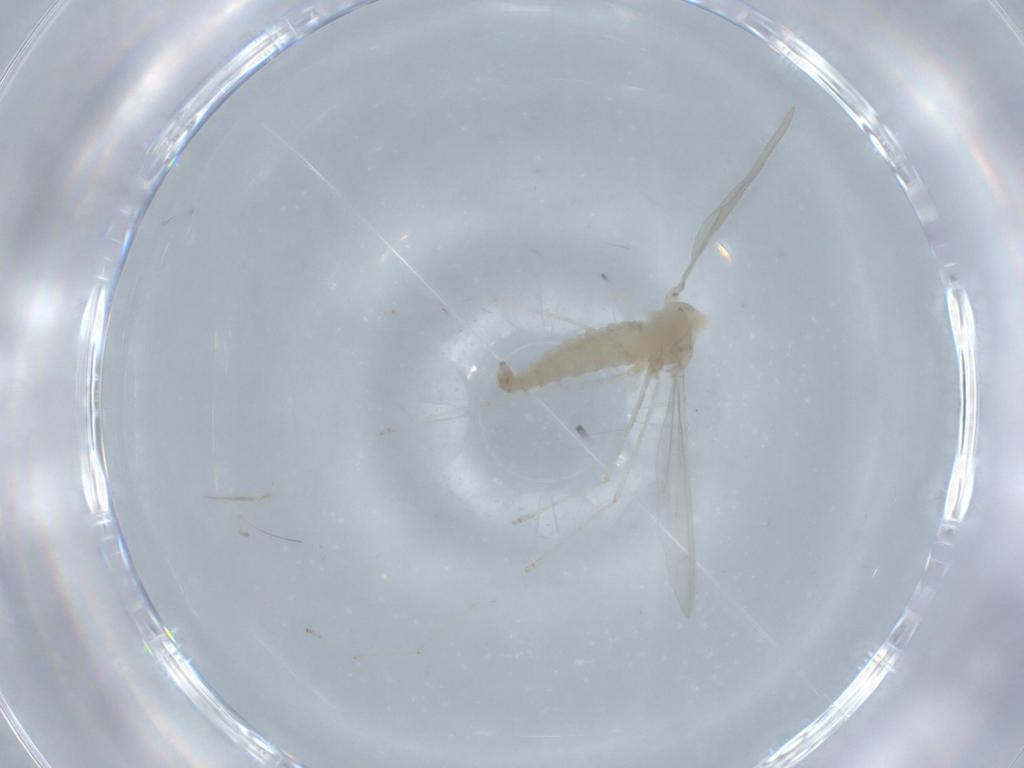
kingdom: Animalia
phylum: Arthropoda
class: Insecta
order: Diptera
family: Cecidomyiidae
